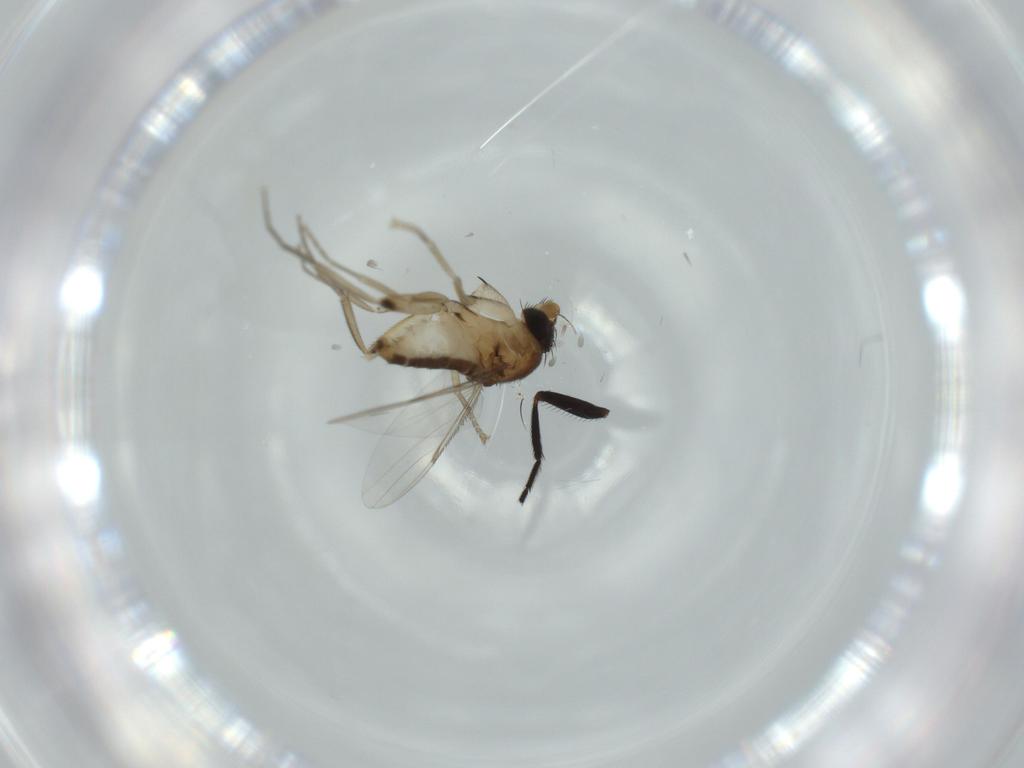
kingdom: Animalia
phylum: Arthropoda
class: Insecta
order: Diptera
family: Phoridae
